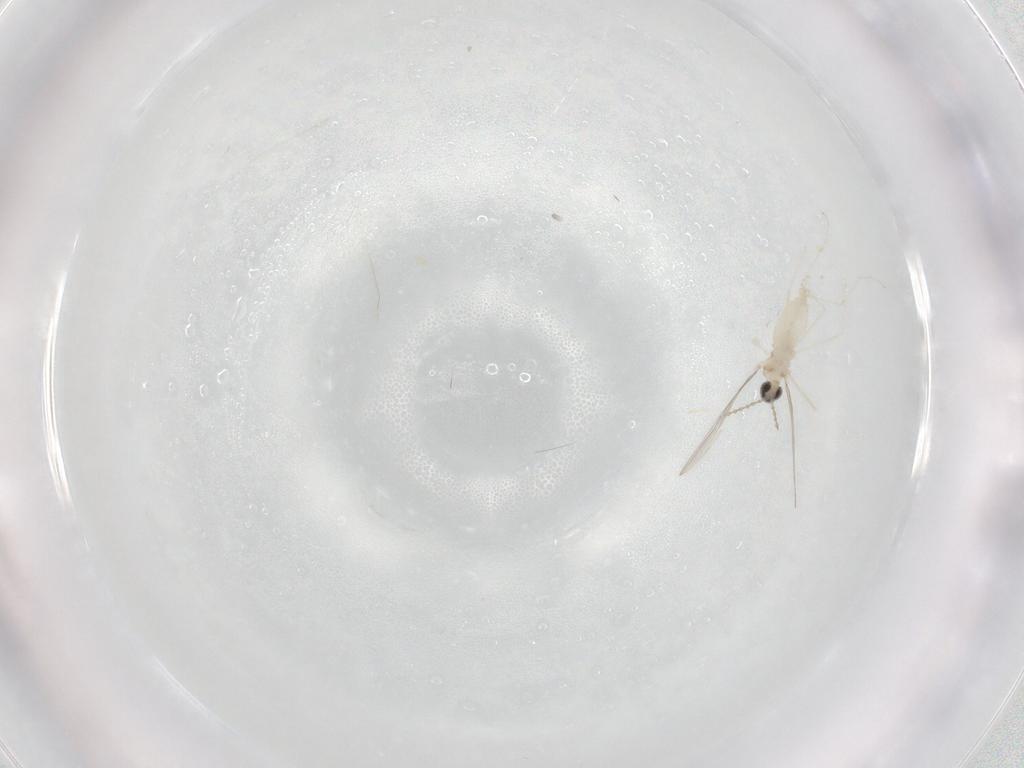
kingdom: Animalia
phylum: Arthropoda
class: Insecta
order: Diptera
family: Cecidomyiidae
